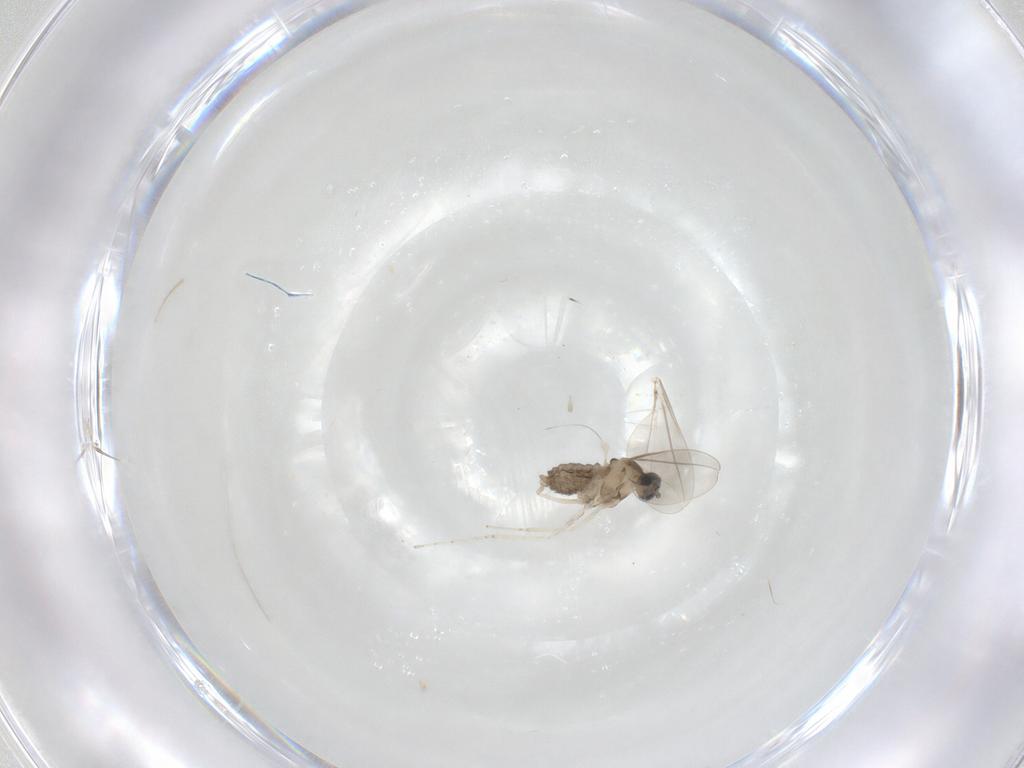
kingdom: Animalia
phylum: Arthropoda
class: Insecta
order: Diptera
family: Cecidomyiidae
